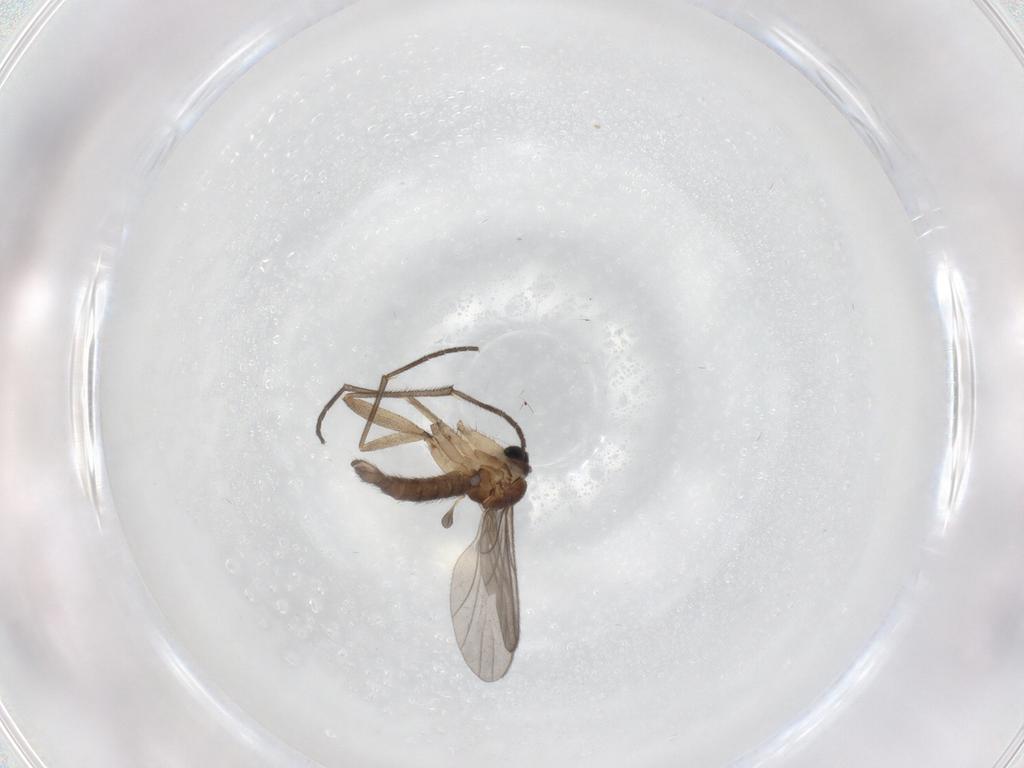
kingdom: Animalia
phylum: Arthropoda
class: Insecta
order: Diptera
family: Sciaridae
